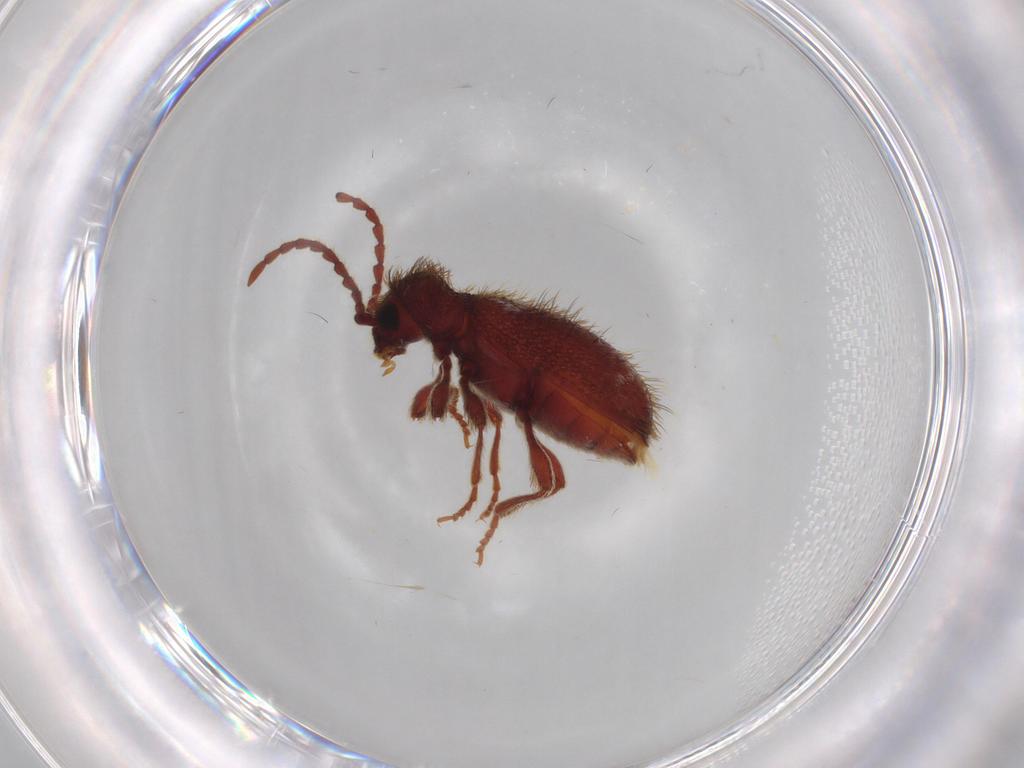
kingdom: Animalia
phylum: Arthropoda
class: Insecta
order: Coleoptera
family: Ptinidae
